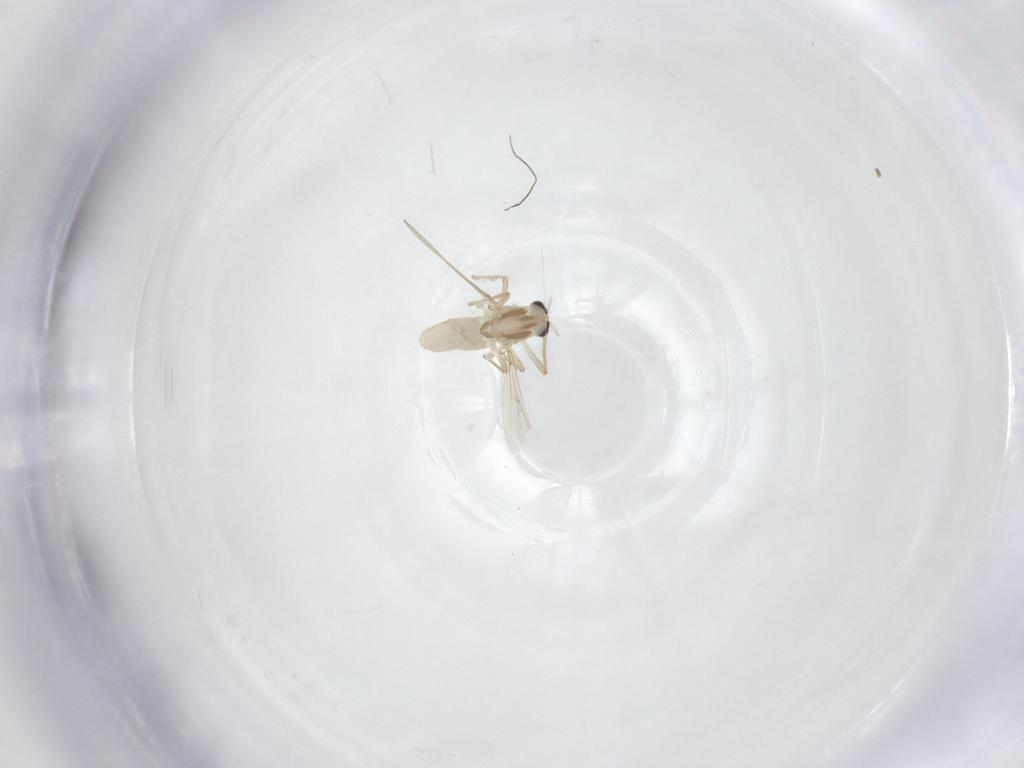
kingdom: Animalia
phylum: Arthropoda
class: Insecta
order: Diptera
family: Chironomidae
